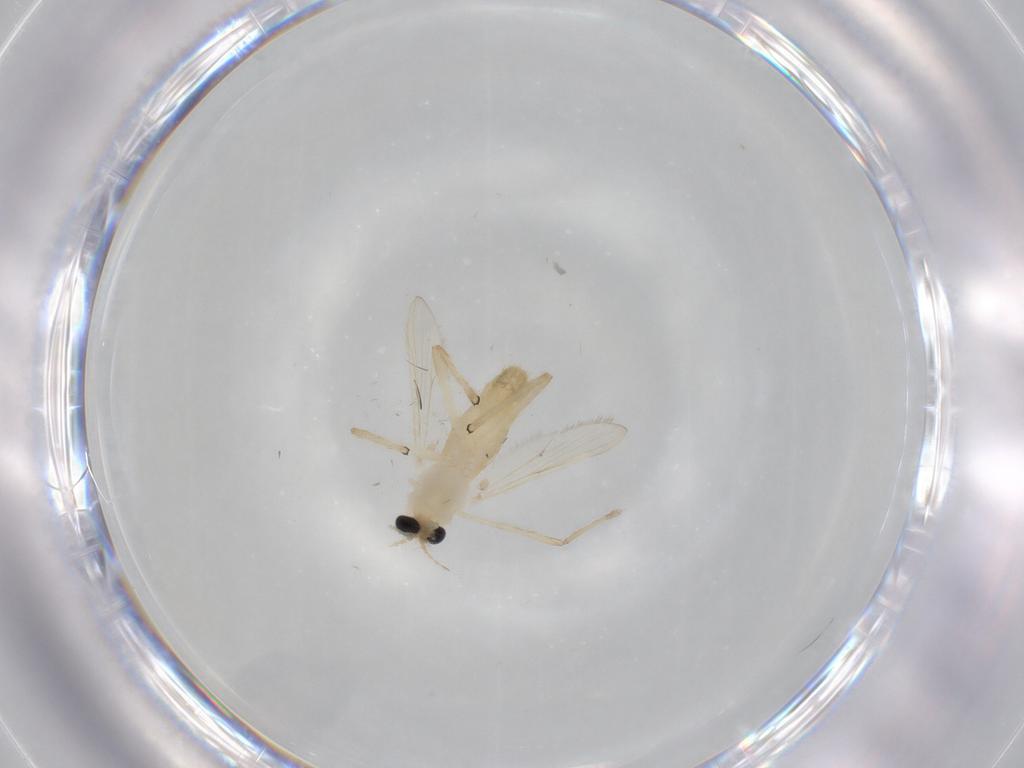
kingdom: Animalia
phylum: Arthropoda
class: Insecta
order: Diptera
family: Chironomidae
